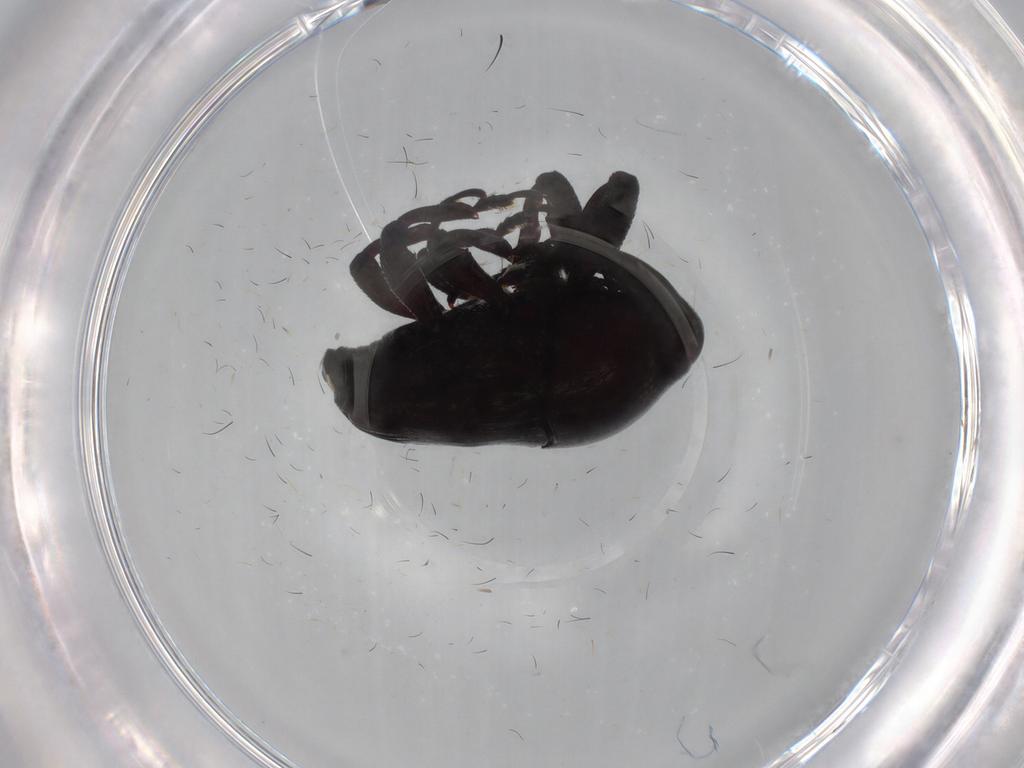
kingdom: Animalia
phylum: Arthropoda
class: Insecta
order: Coleoptera
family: Curculionidae
